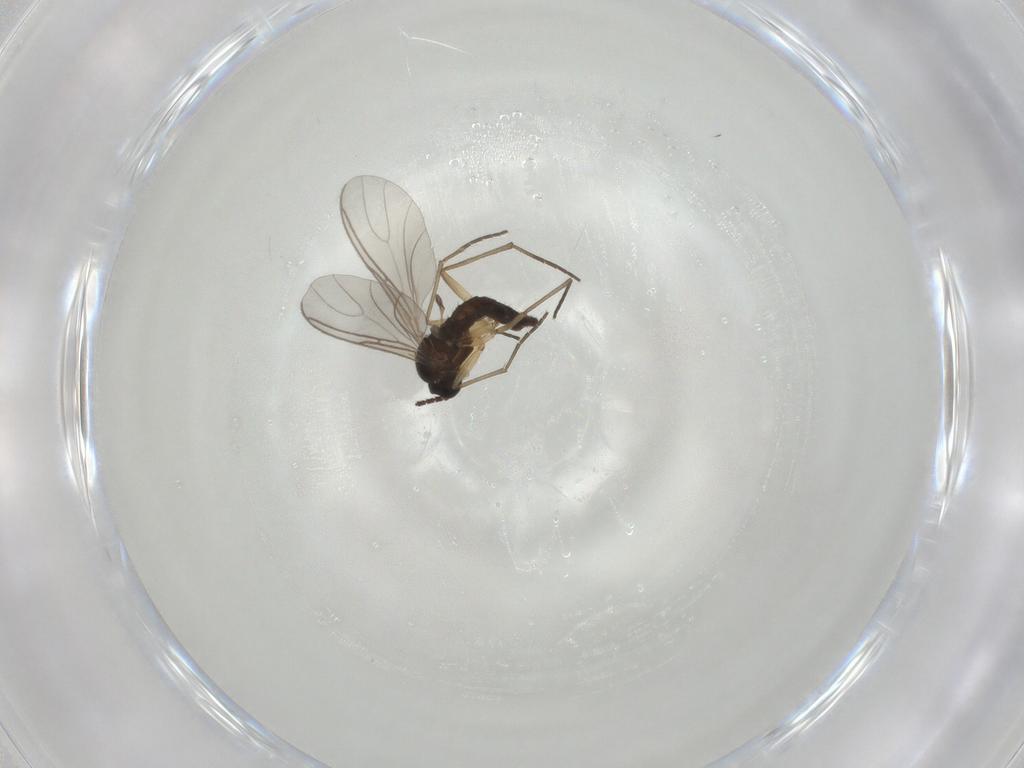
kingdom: Animalia
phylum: Arthropoda
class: Insecta
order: Diptera
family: Sciaridae
